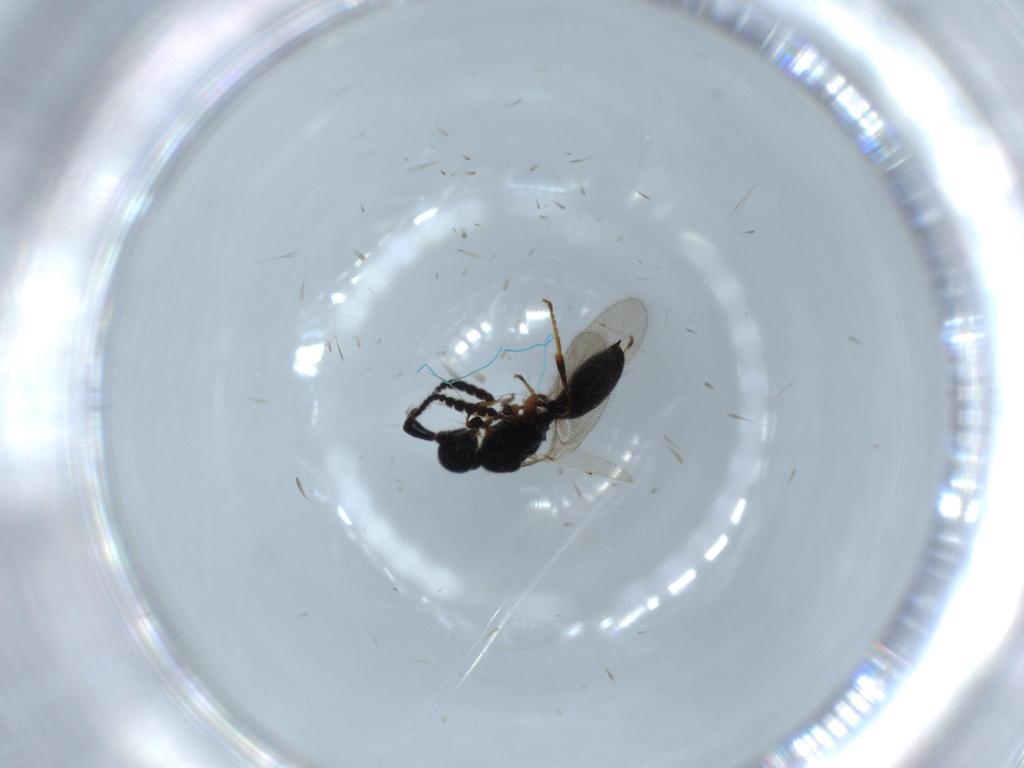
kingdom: Animalia
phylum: Arthropoda
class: Insecta
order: Hymenoptera
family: Diapriidae
